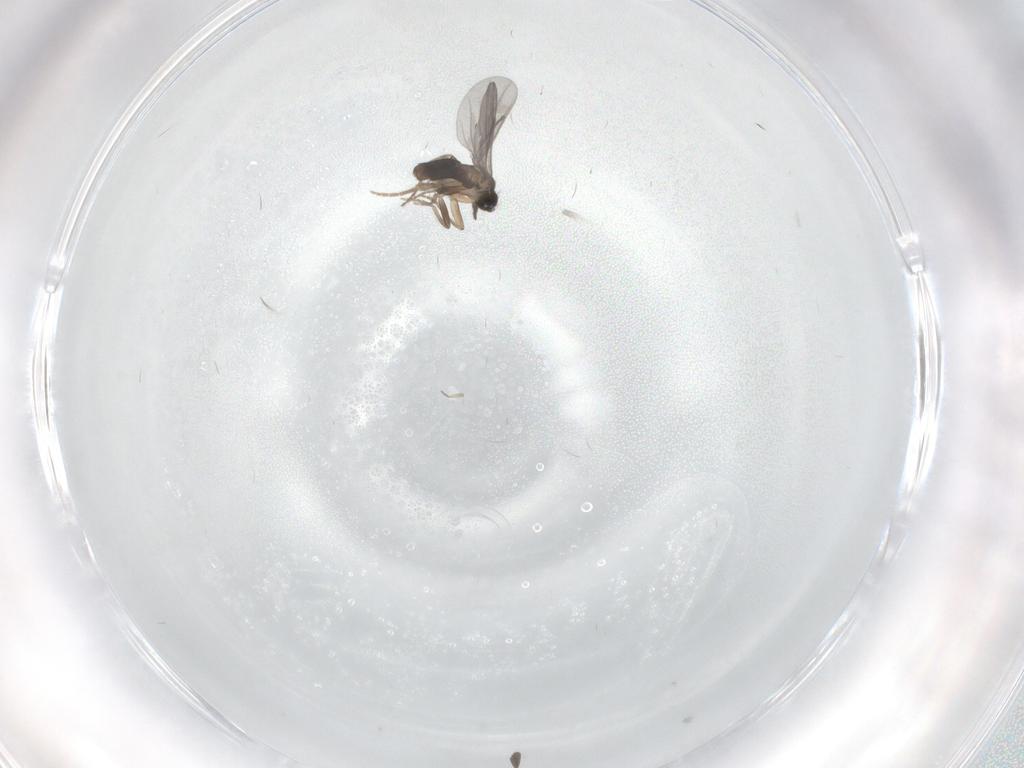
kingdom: Animalia
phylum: Arthropoda
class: Insecta
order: Diptera
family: Cecidomyiidae
